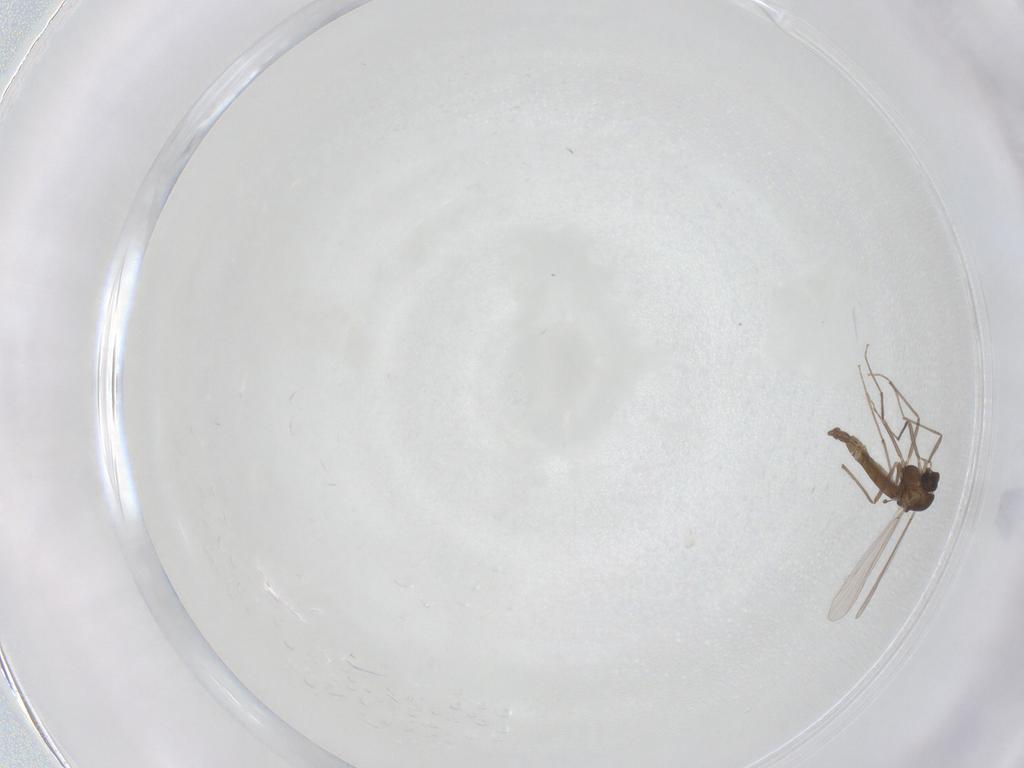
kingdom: Animalia
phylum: Arthropoda
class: Insecta
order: Diptera
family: Chironomidae
